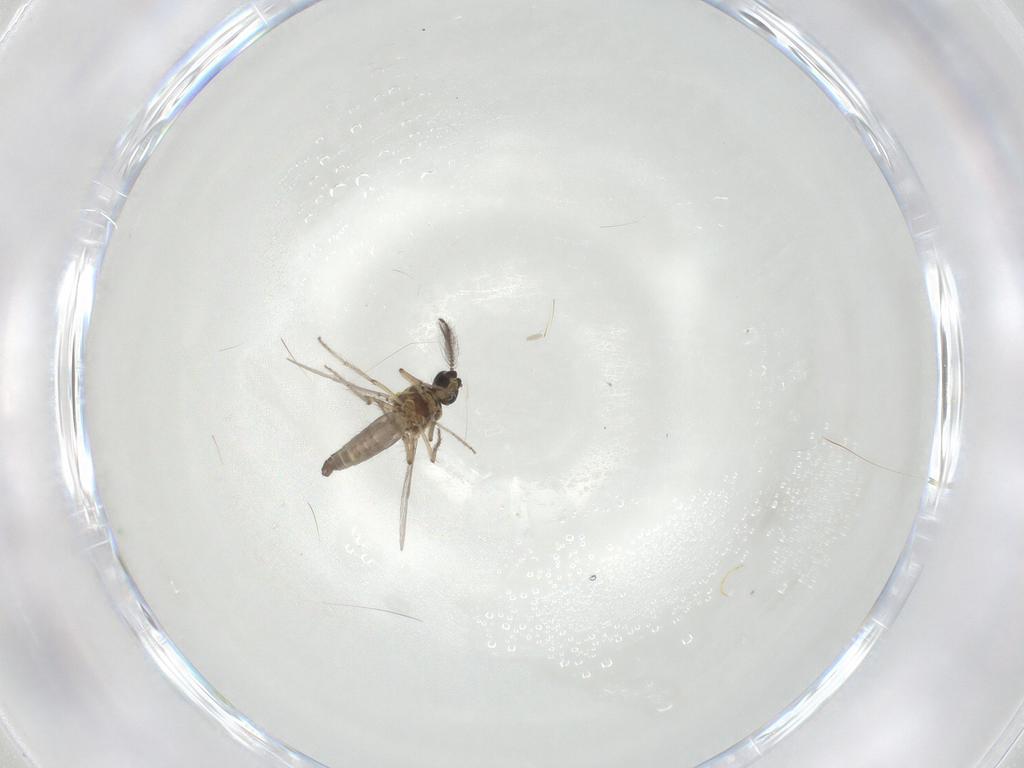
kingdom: Animalia
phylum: Arthropoda
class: Insecta
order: Diptera
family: Ceratopogonidae
